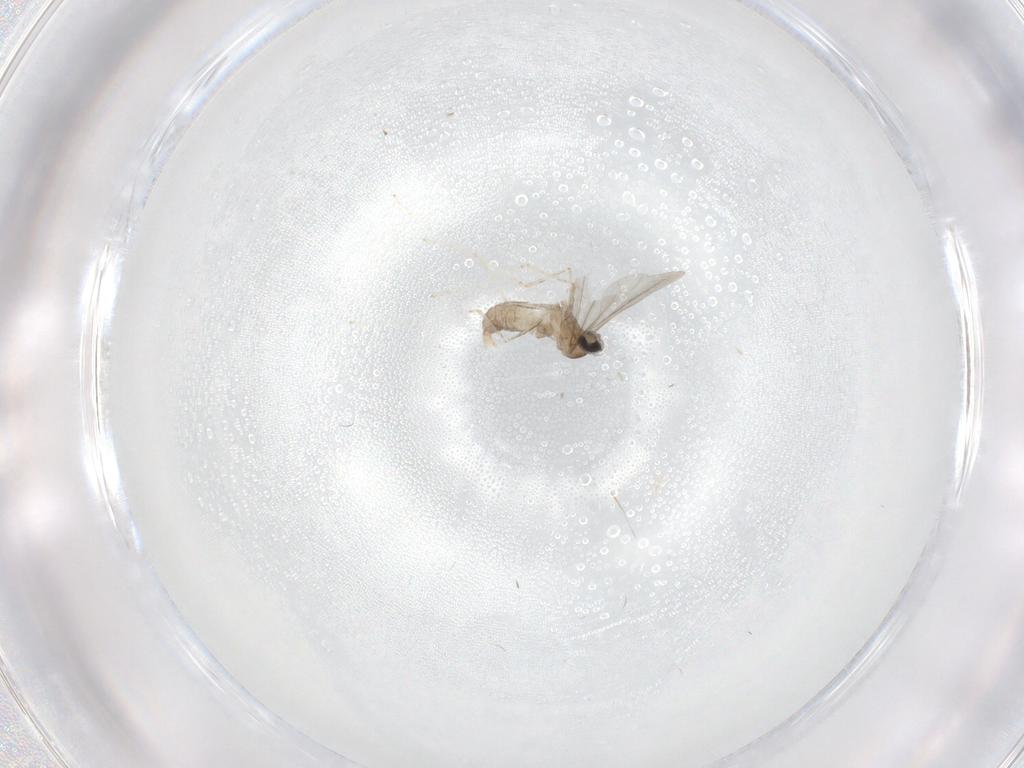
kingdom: Animalia
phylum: Arthropoda
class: Insecta
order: Diptera
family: Cecidomyiidae
